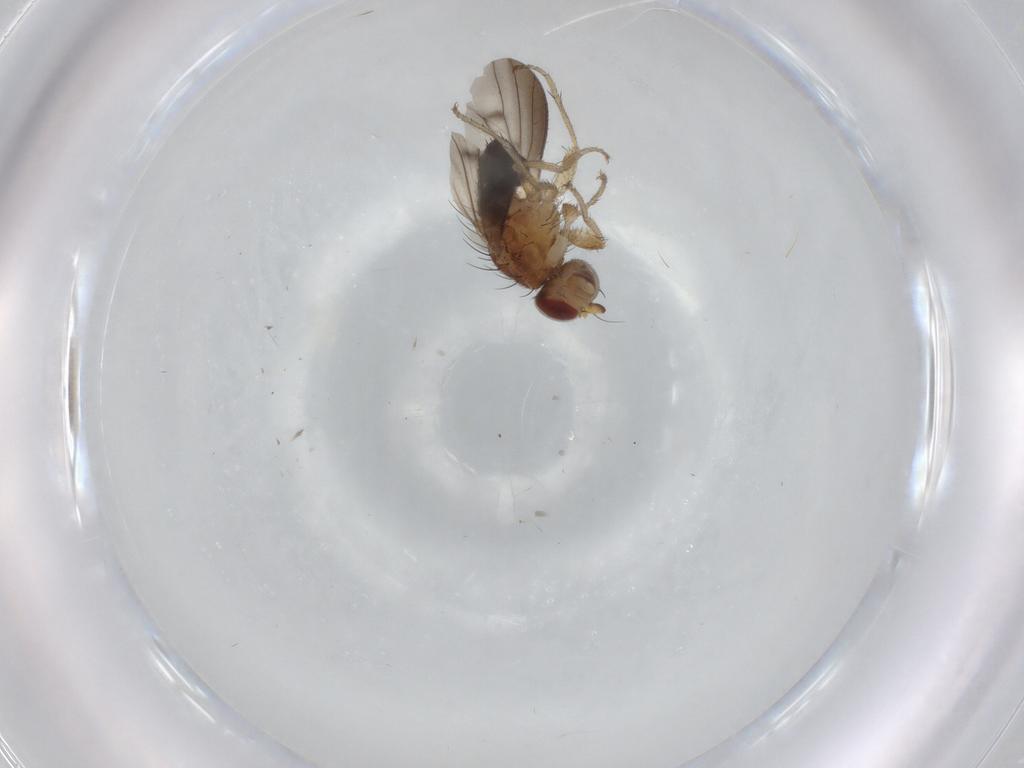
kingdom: Animalia
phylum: Arthropoda
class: Insecta
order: Diptera
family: Heleomyzidae
